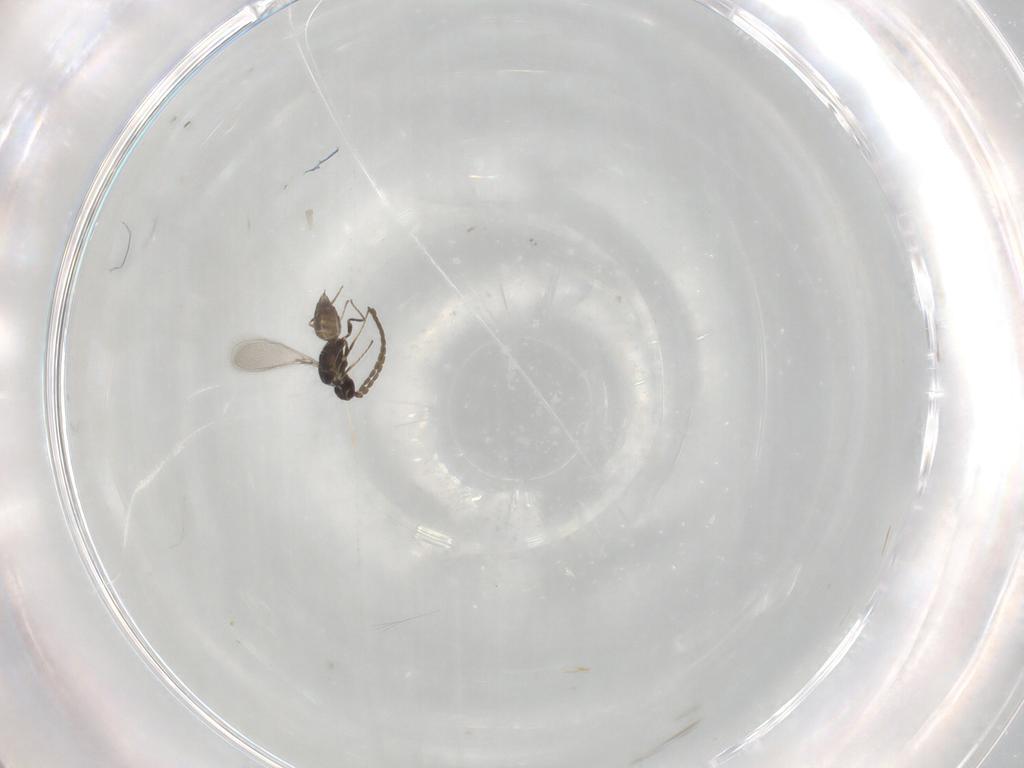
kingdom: Animalia
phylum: Arthropoda
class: Insecta
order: Hymenoptera
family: Mymaridae
